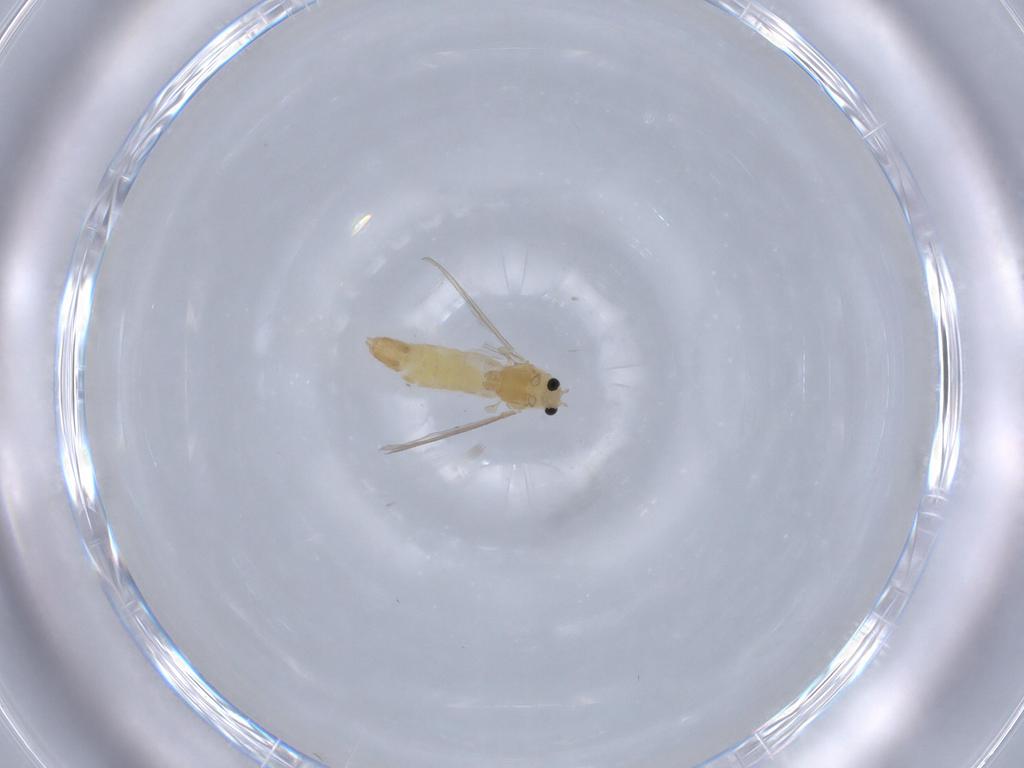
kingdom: Animalia
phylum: Arthropoda
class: Insecta
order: Diptera
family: Chironomidae
